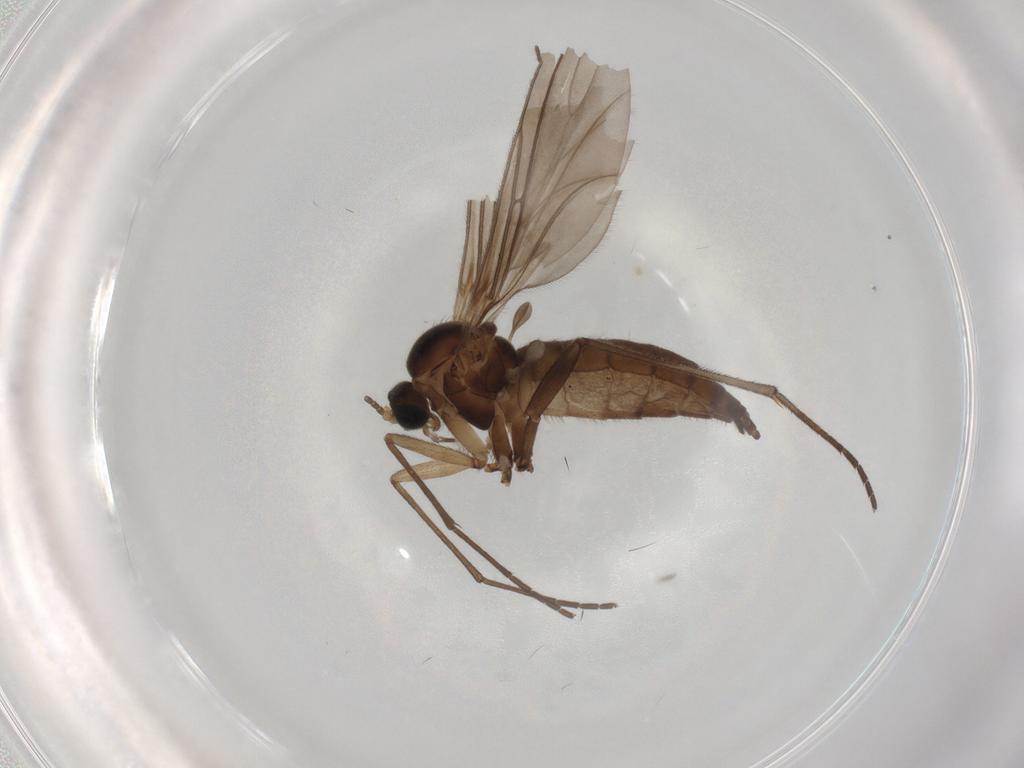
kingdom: Animalia
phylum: Arthropoda
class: Insecta
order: Diptera
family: Sciaridae
